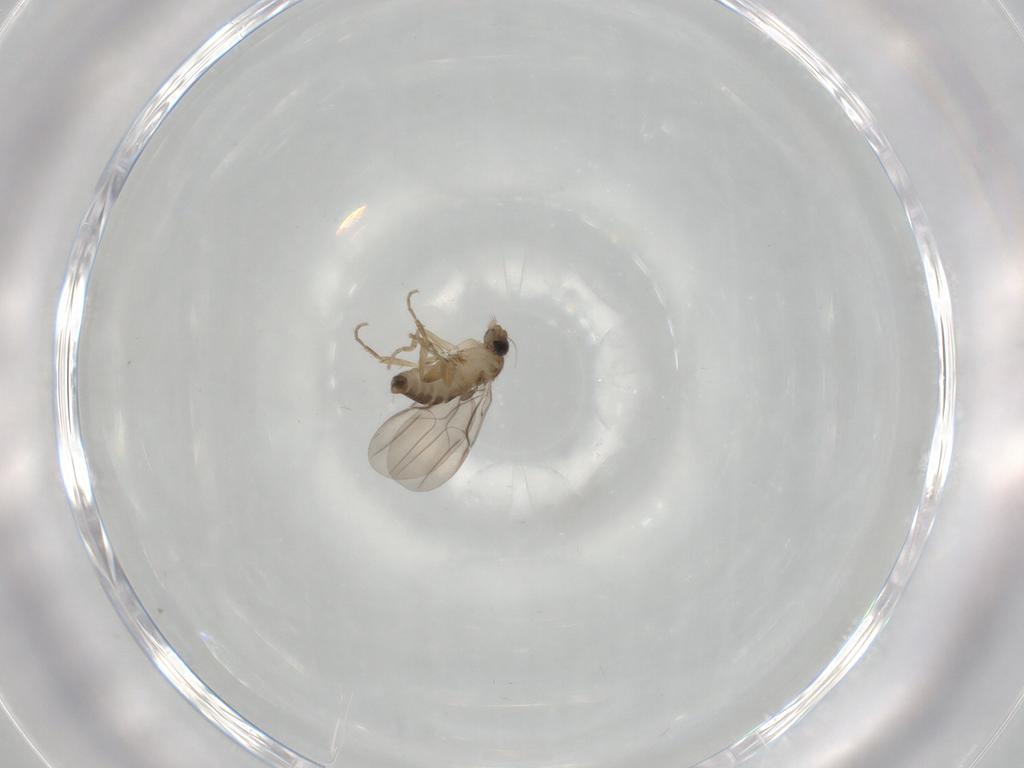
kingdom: Animalia
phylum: Arthropoda
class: Insecta
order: Diptera
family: Phoridae
